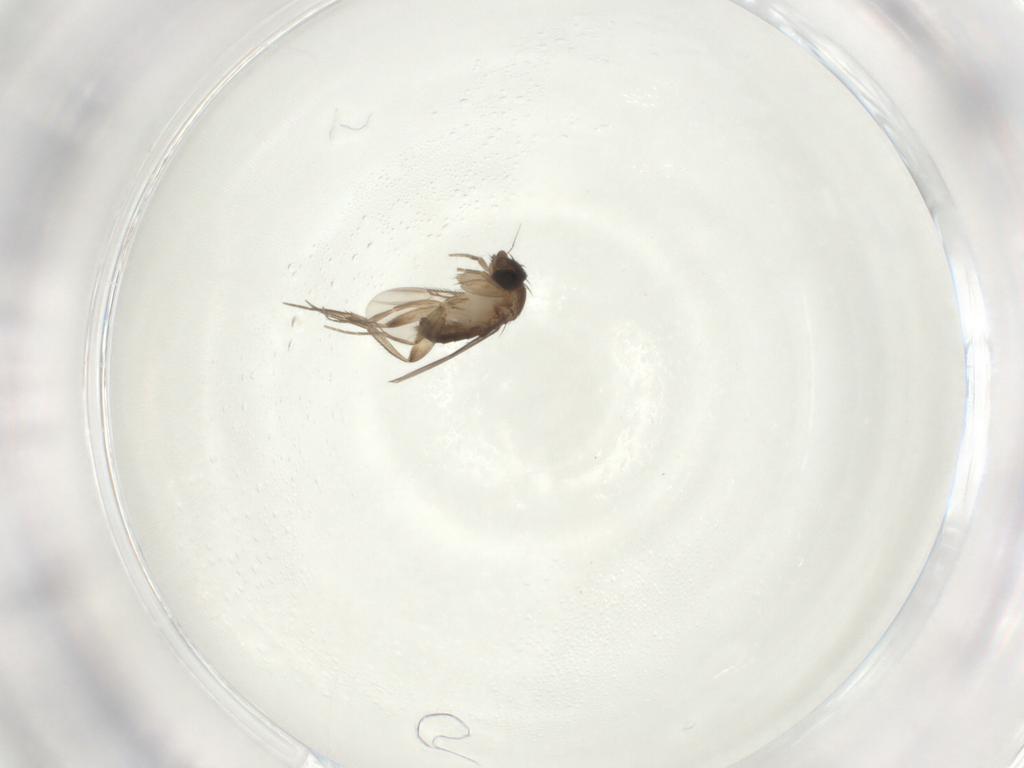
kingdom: Animalia
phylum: Arthropoda
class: Insecta
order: Diptera
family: Phoridae
